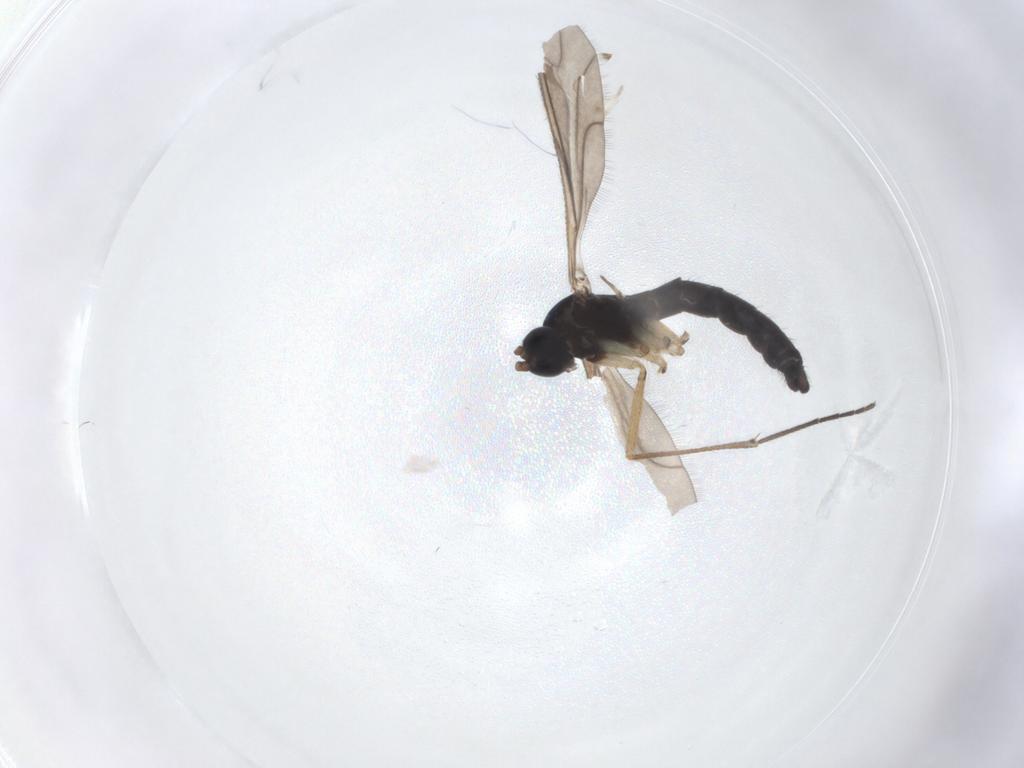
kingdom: Animalia
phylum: Arthropoda
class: Insecta
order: Diptera
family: Sciaridae
